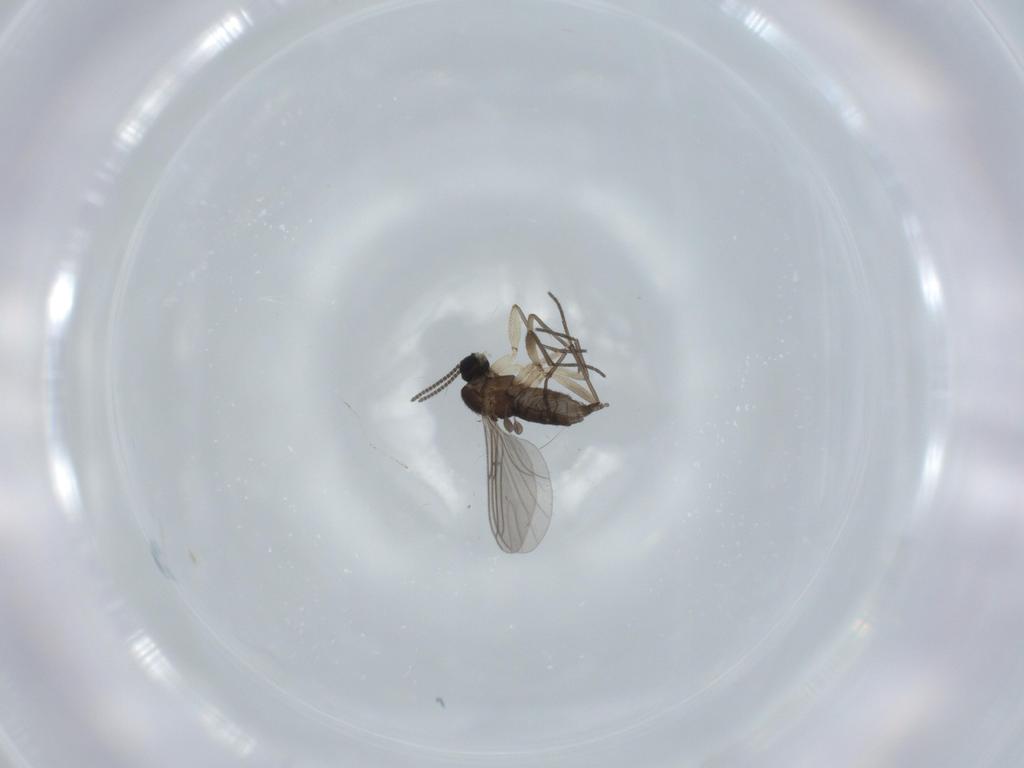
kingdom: Animalia
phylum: Arthropoda
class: Insecta
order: Diptera
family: Sciaridae
